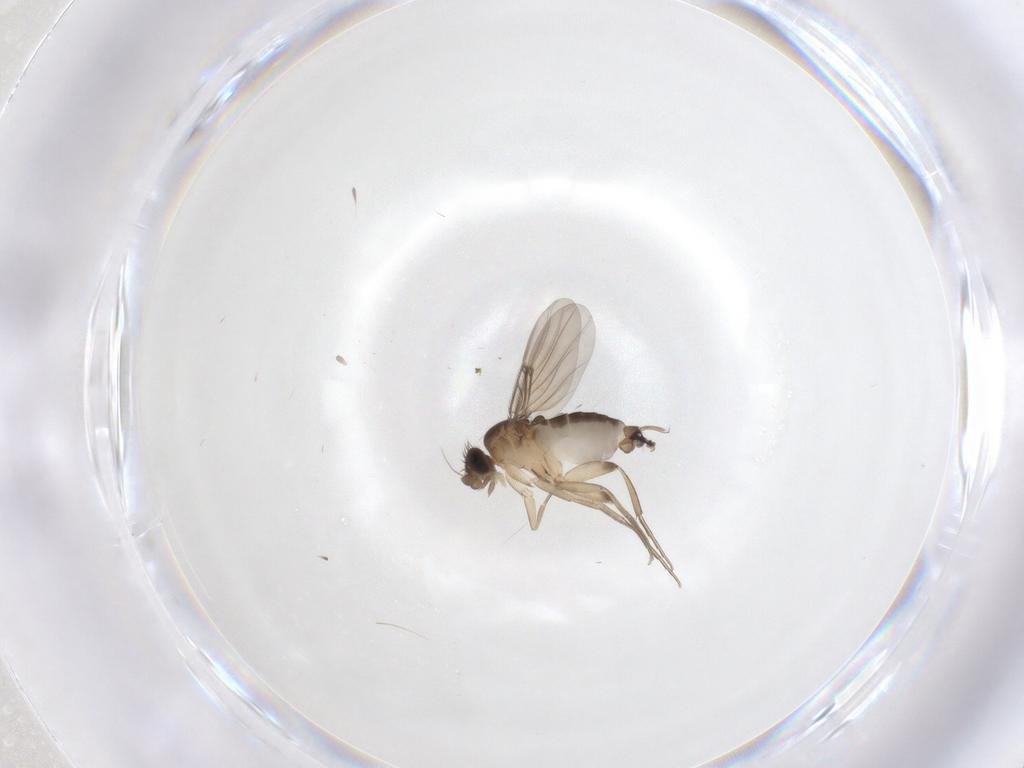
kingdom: Animalia
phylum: Arthropoda
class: Insecta
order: Diptera
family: Phoridae
